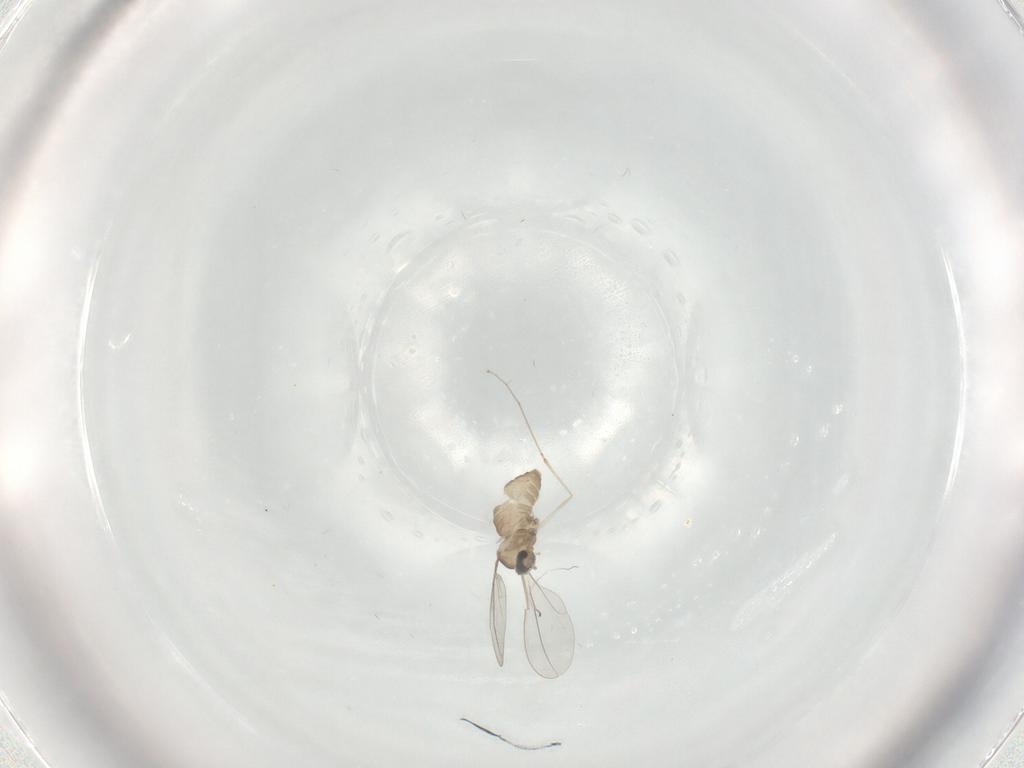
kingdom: Animalia
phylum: Arthropoda
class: Insecta
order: Diptera
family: Cecidomyiidae
